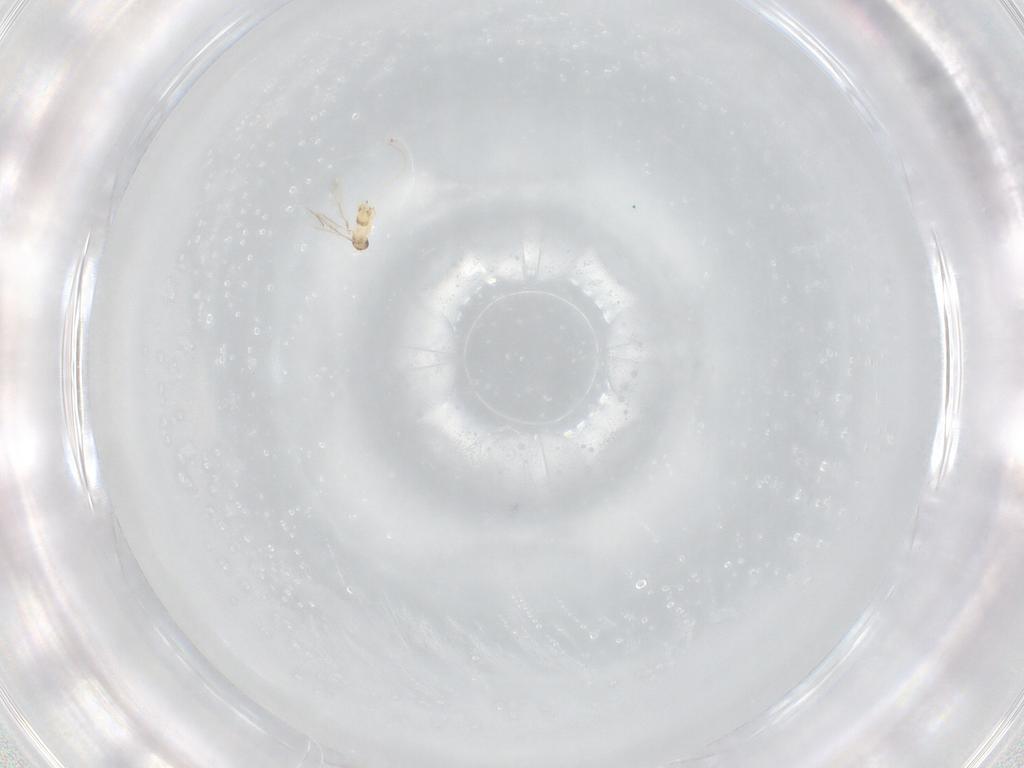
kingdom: Animalia
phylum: Arthropoda
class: Insecta
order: Hymenoptera
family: Mymaridae
